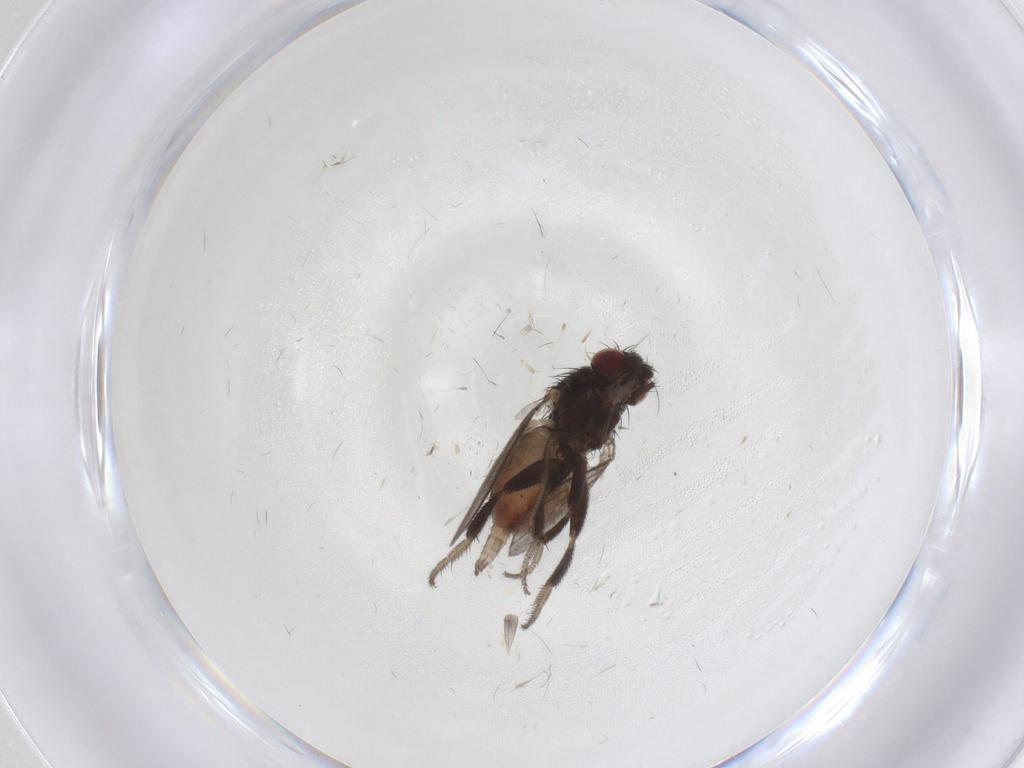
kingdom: Animalia
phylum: Arthropoda
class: Insecta
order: Diptera
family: Milichiidae
